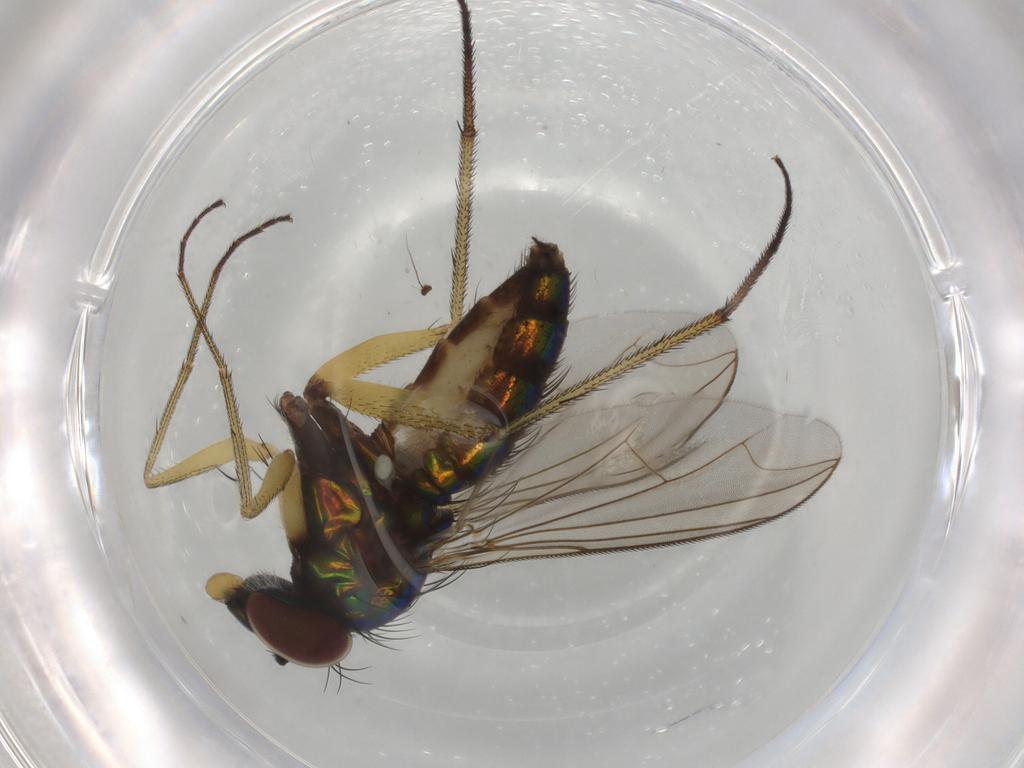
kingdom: Animalia
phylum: Arthropoda
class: Insecta
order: Diptera
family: Dolichopodidae
